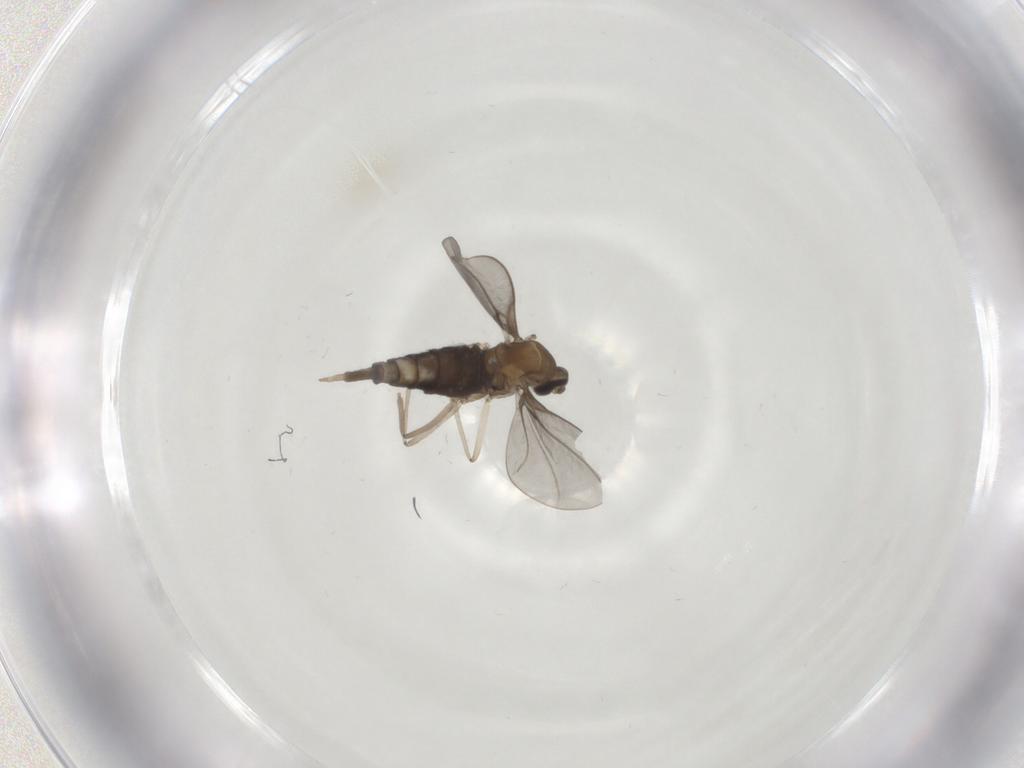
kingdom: Animalia
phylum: Arthropoda
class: Insecta
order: Diptera
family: Cecidomyiidae
